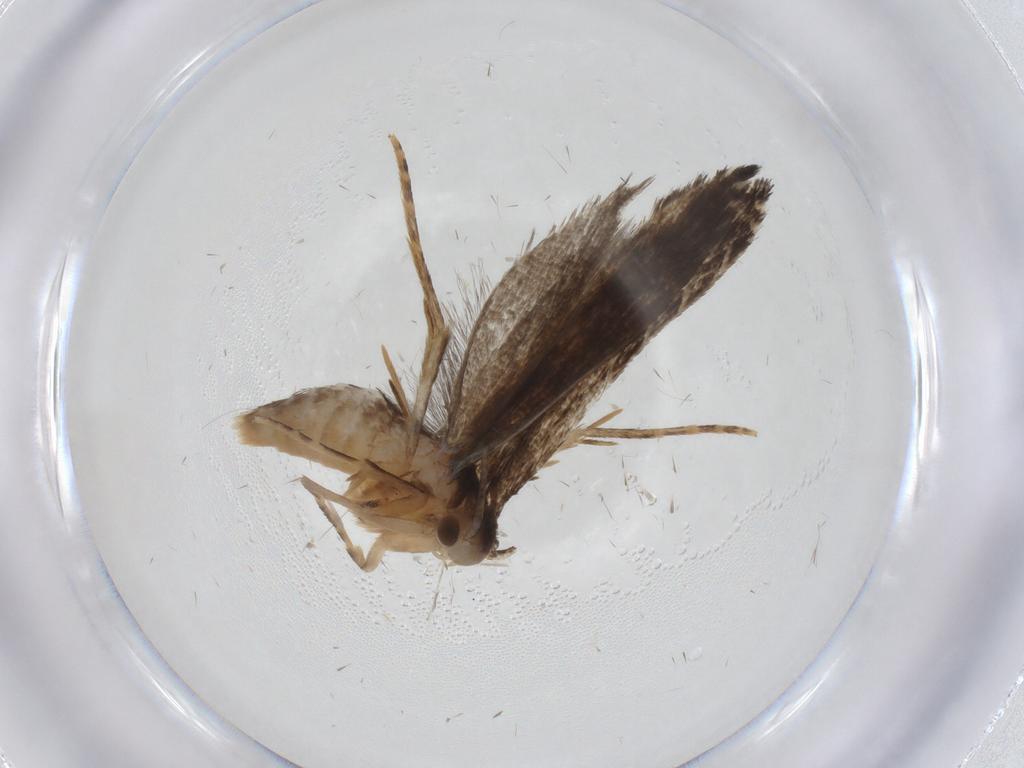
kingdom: Animalia
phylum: Arthropoda
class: Insecta
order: Lepidoptera
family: Tineidae
